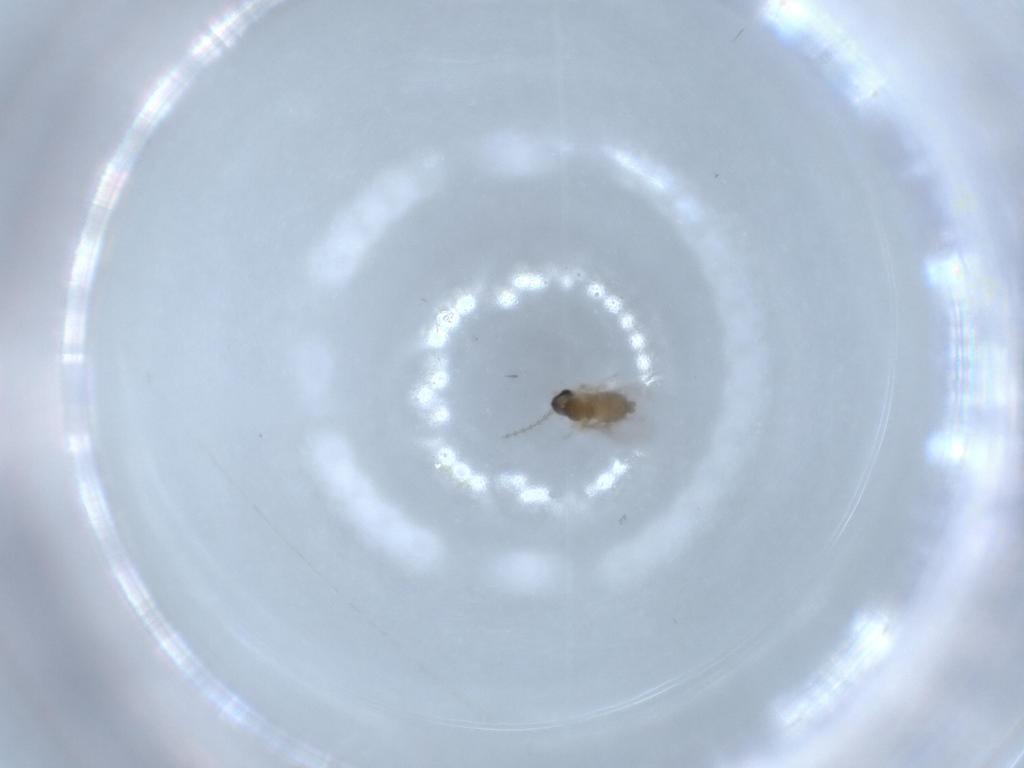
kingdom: Animalia
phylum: Arthropoda
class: Insecta
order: Diptera
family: Cecidomyiidae
